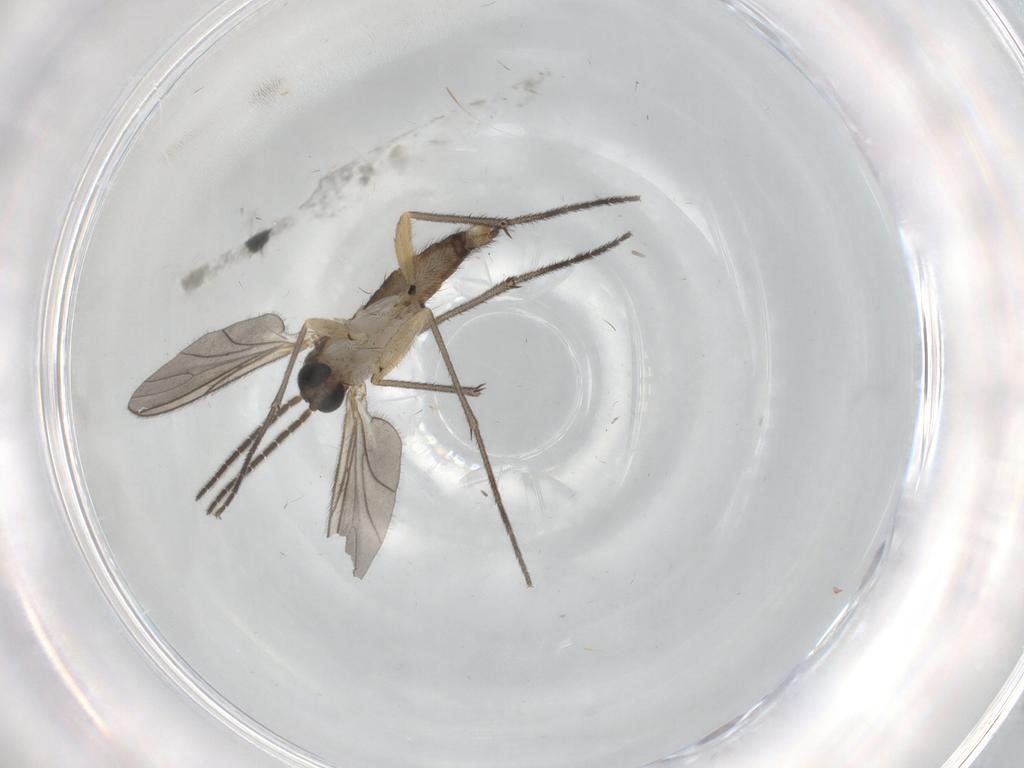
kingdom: Animalia
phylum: Arthropoda
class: Insecta
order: Diptera
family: Sciaridae
